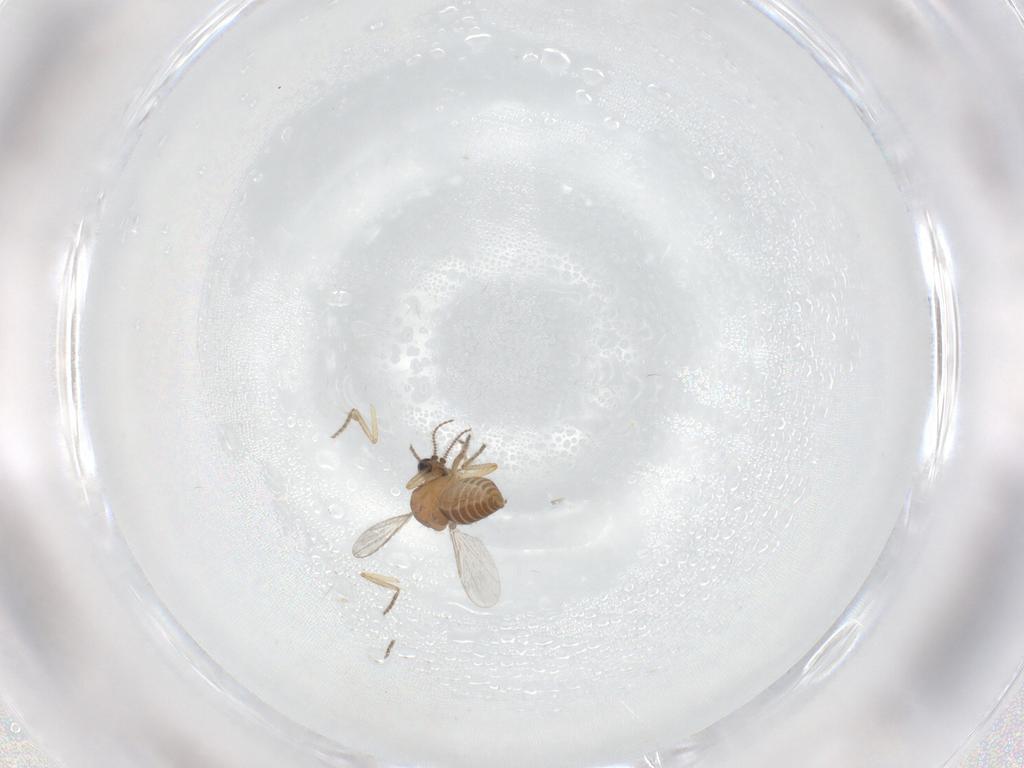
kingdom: Animalia
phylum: Arthropoda
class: Insecta
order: Diptera
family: Ceratopogonidae
